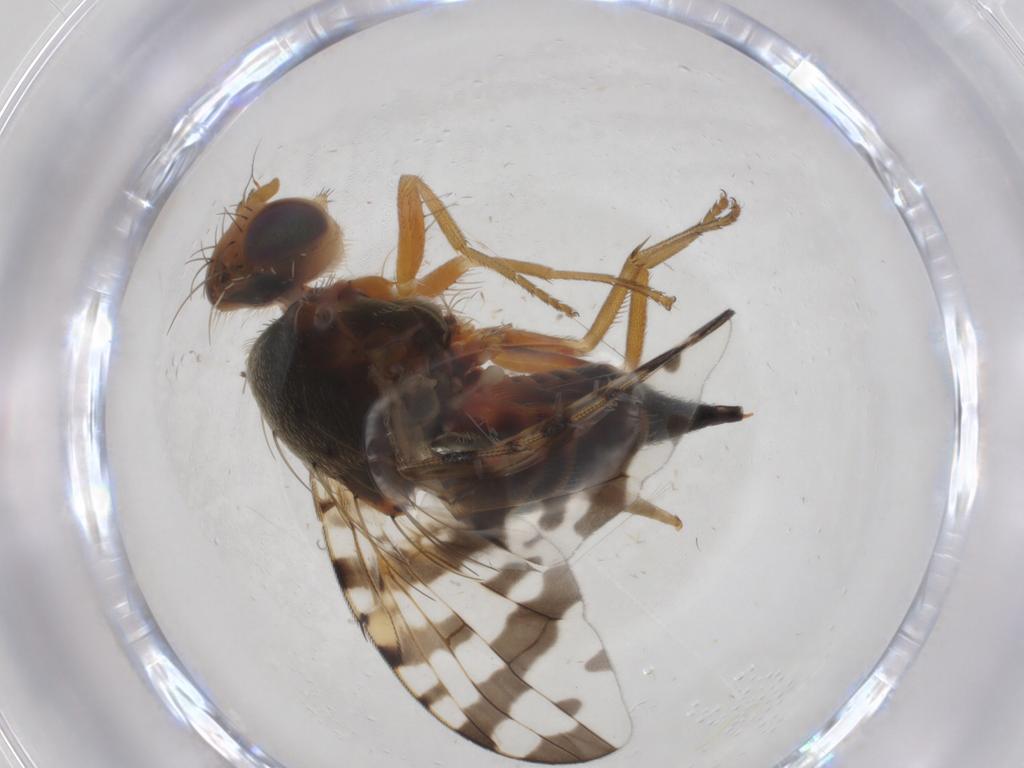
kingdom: Animalia
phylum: Arthropoda
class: Insecta
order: Diptera
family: Tephritidae
